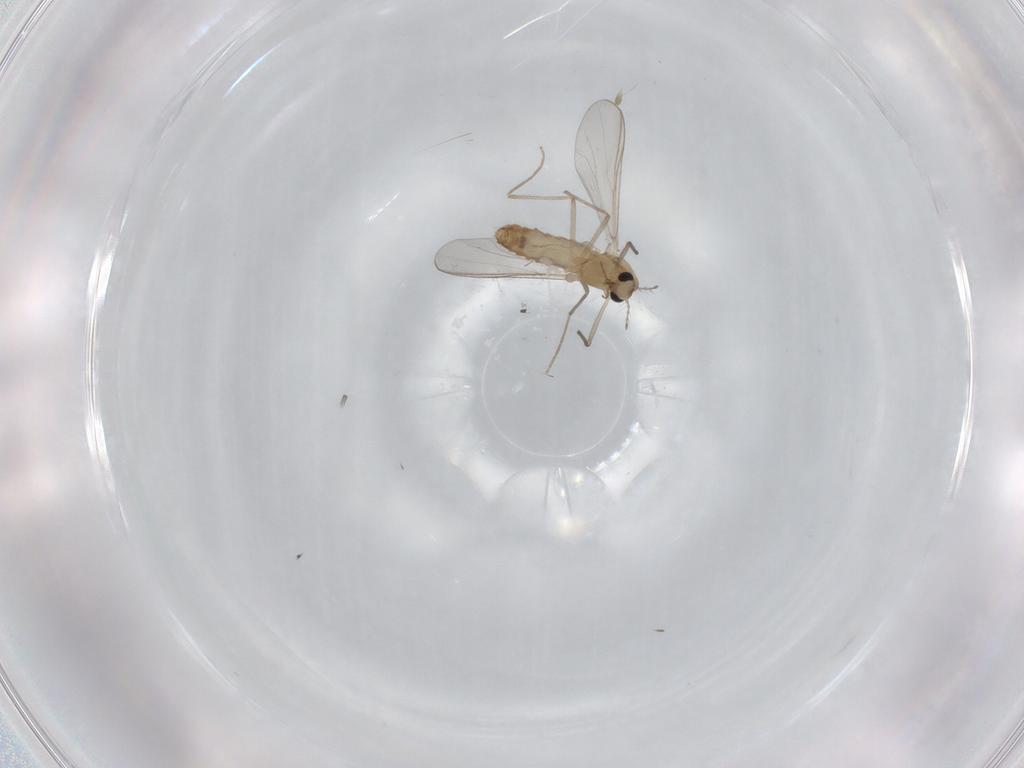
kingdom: Animalia
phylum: Arthropoda
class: Insecta
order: Diptera
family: Chironomidae
